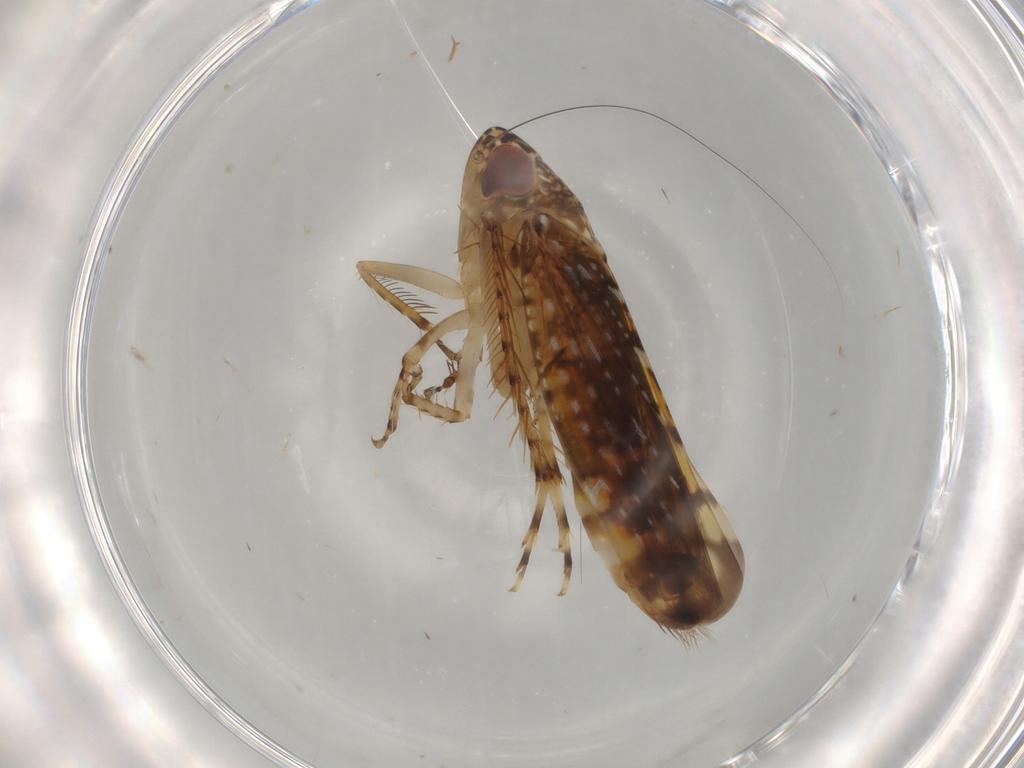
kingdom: Animalia
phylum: Arthropoda
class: Insecta
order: Hemiptera
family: Cicadellidae
